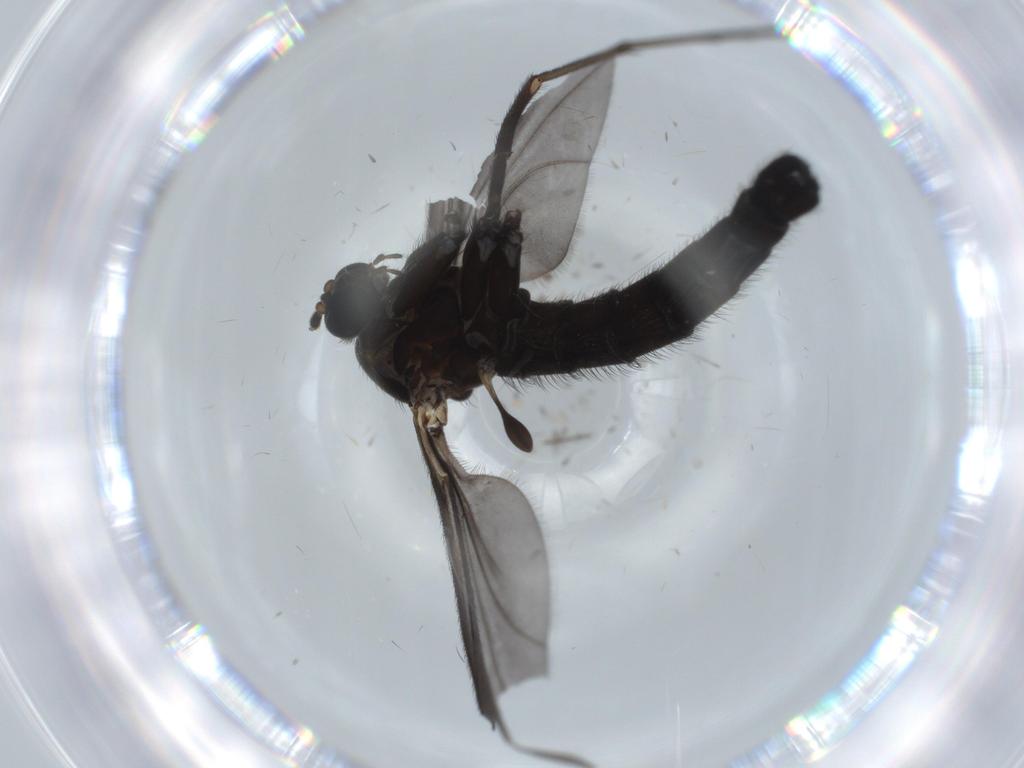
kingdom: Animalia
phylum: Arthropoda
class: Insecta
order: Diptera
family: Sciaridae
